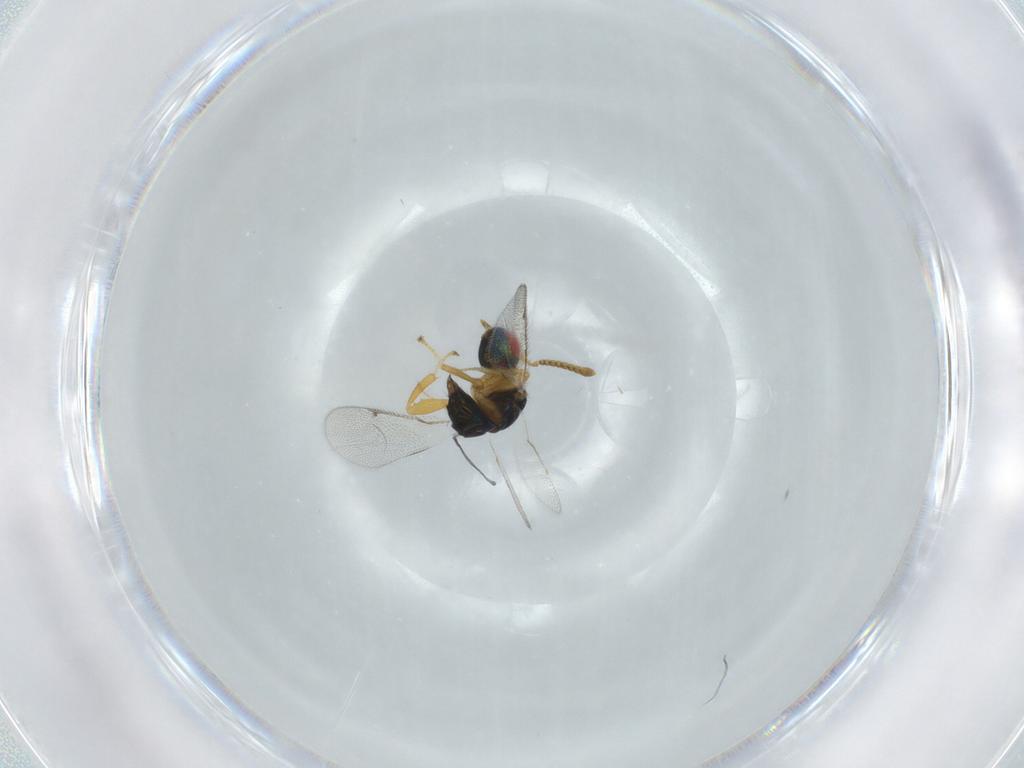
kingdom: Animalia
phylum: Arthropoda
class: Insecta
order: Hymenoptera
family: Torymidae
